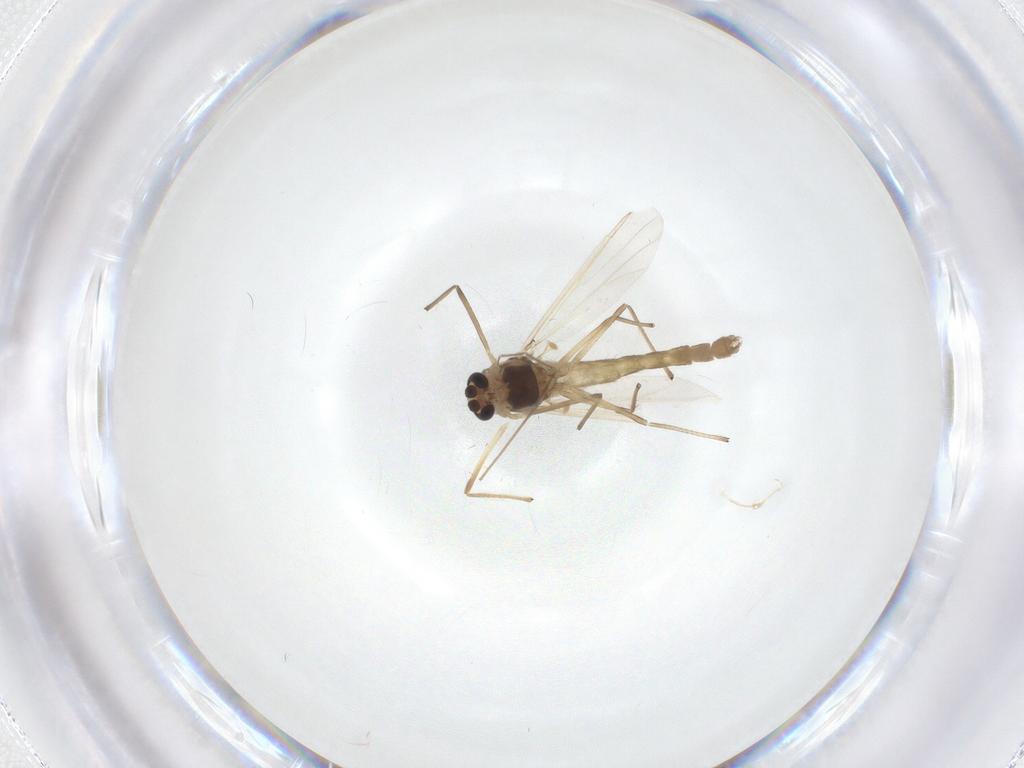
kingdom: Animalia
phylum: Arthropoda
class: Insecta
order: Diptera
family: Chironomidae
